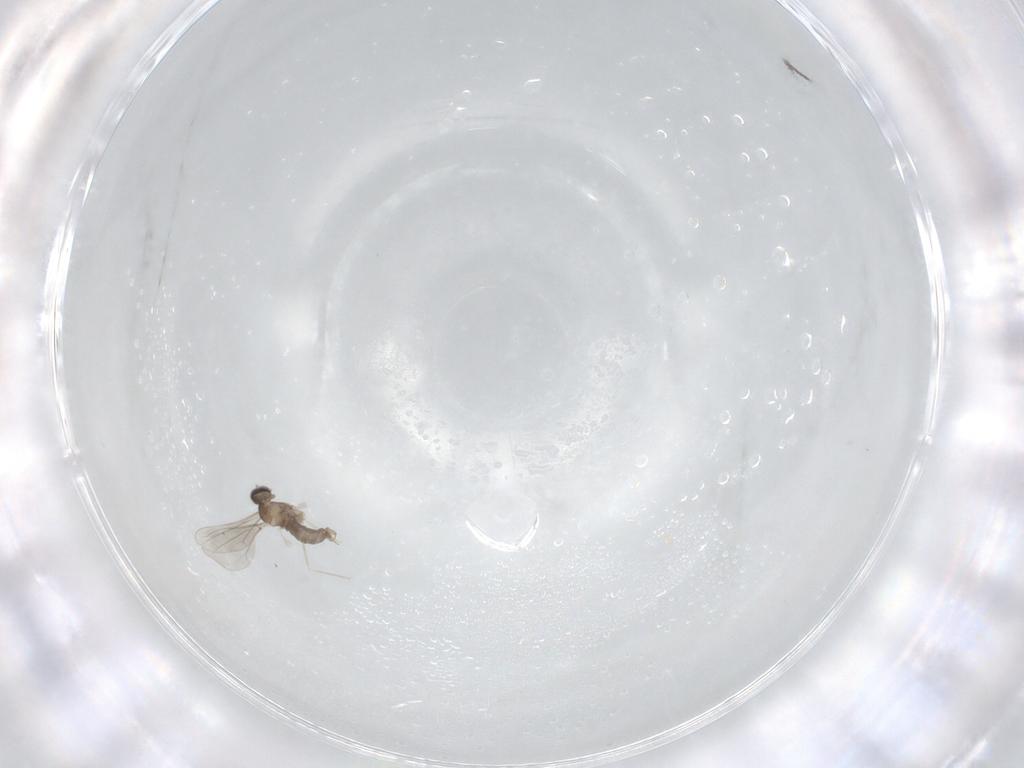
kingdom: Animalia
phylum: Arthropoda
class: Insecta
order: Diptera
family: Cecidomyiidae
